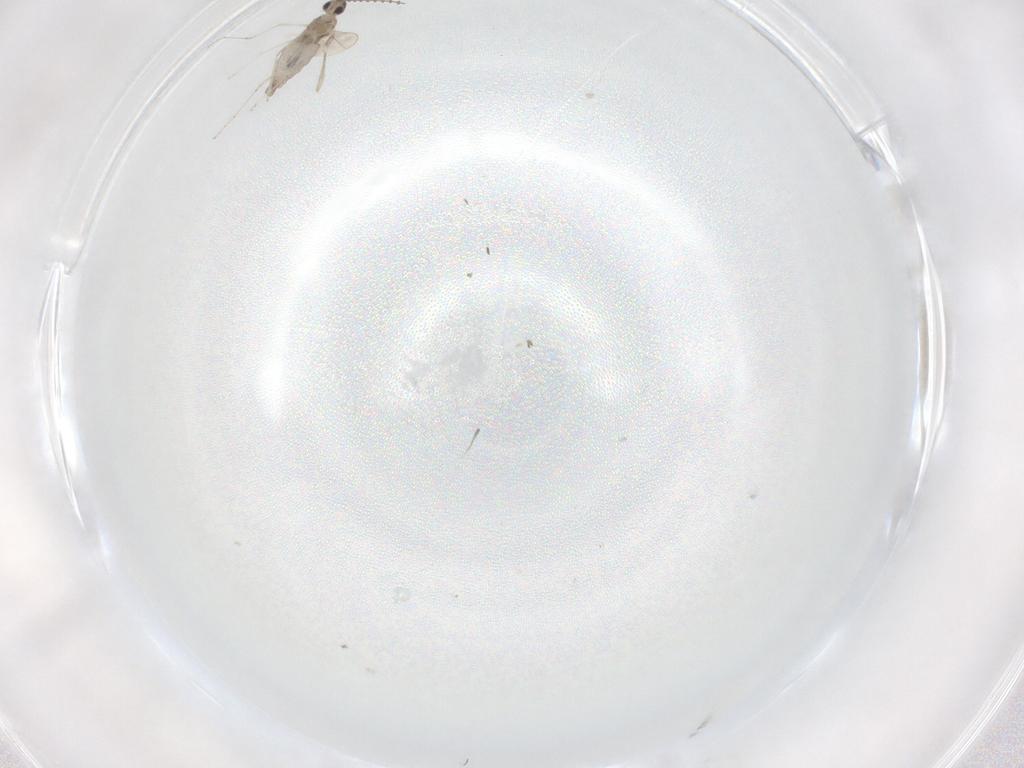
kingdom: Animalia
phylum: Arthropoda
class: Insecta
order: Diptera
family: Cecidomyiidae
